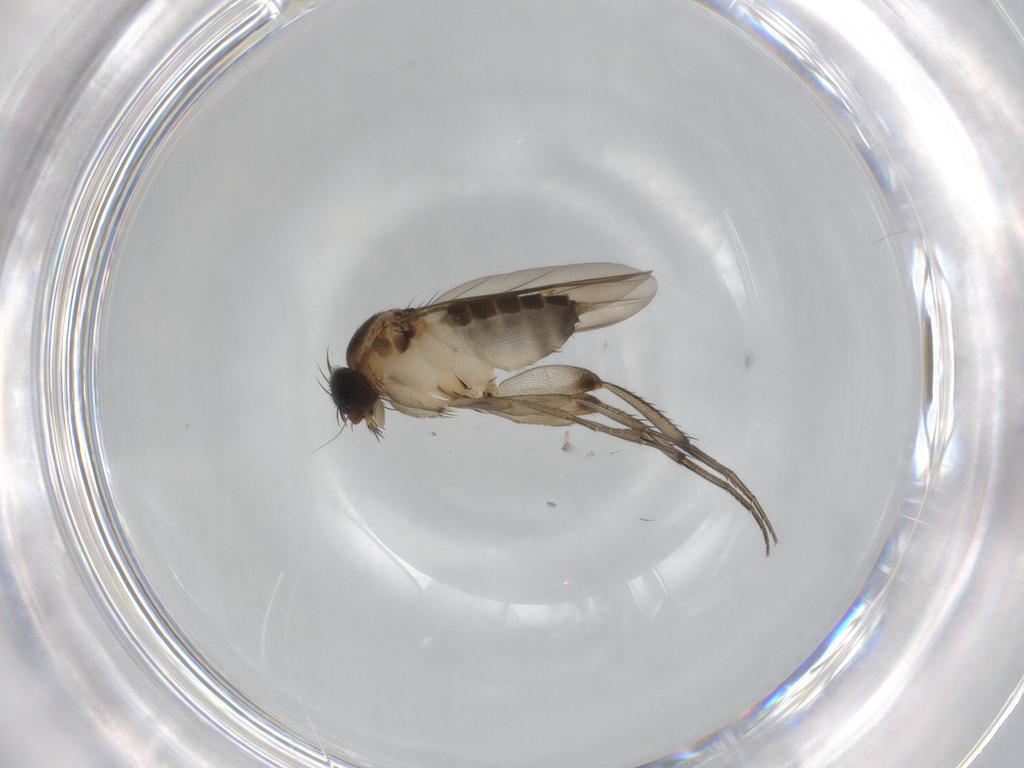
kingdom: Animalia
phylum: Arthropoda
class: Insecta
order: Diptera
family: Phoridae
